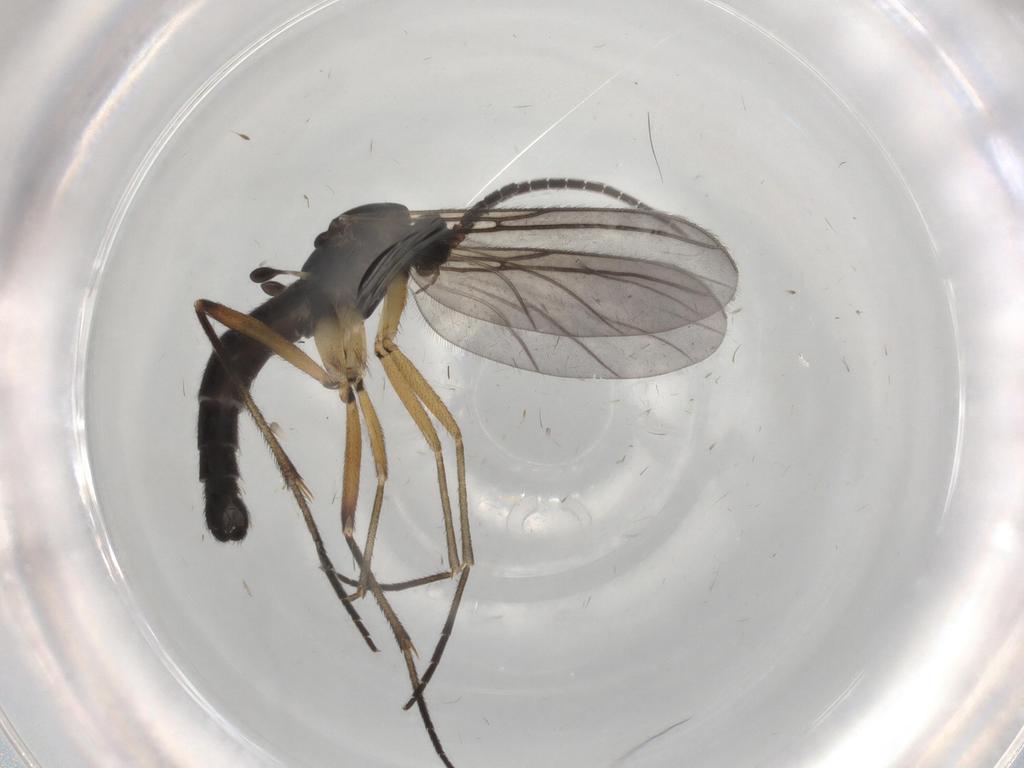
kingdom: Animalia
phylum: Arthropoda
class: Insecta
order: Diptera
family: Sciaridae
